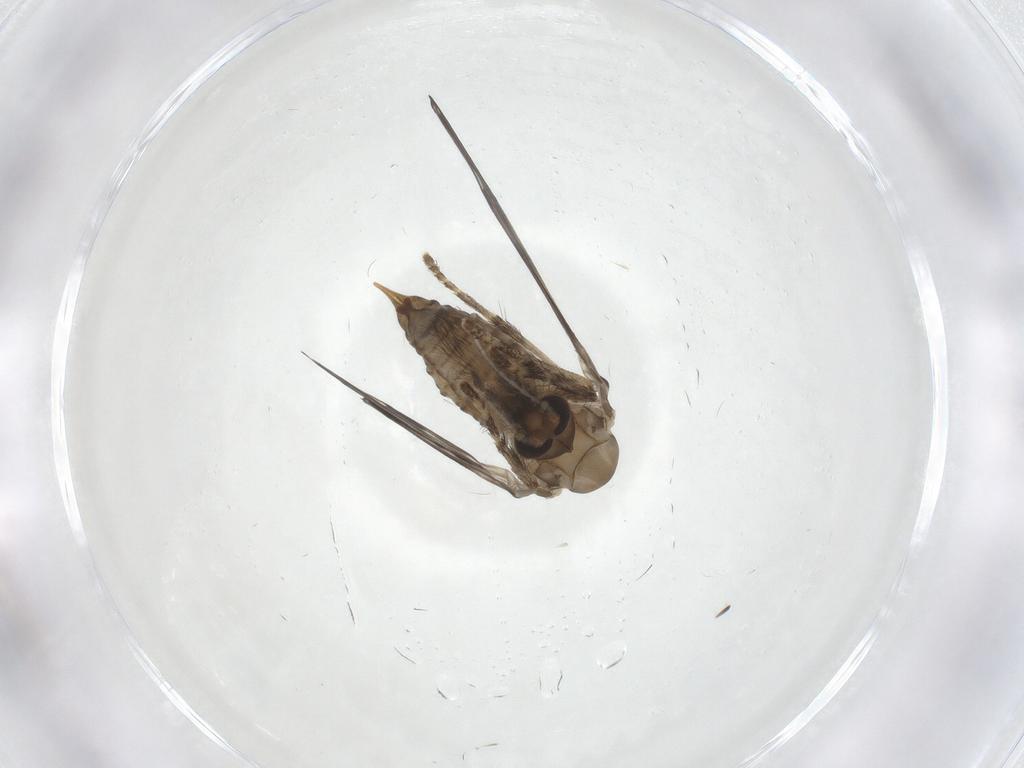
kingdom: Animalia
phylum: Arthropoda
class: Insecta
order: Diptera
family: Psychodidae
